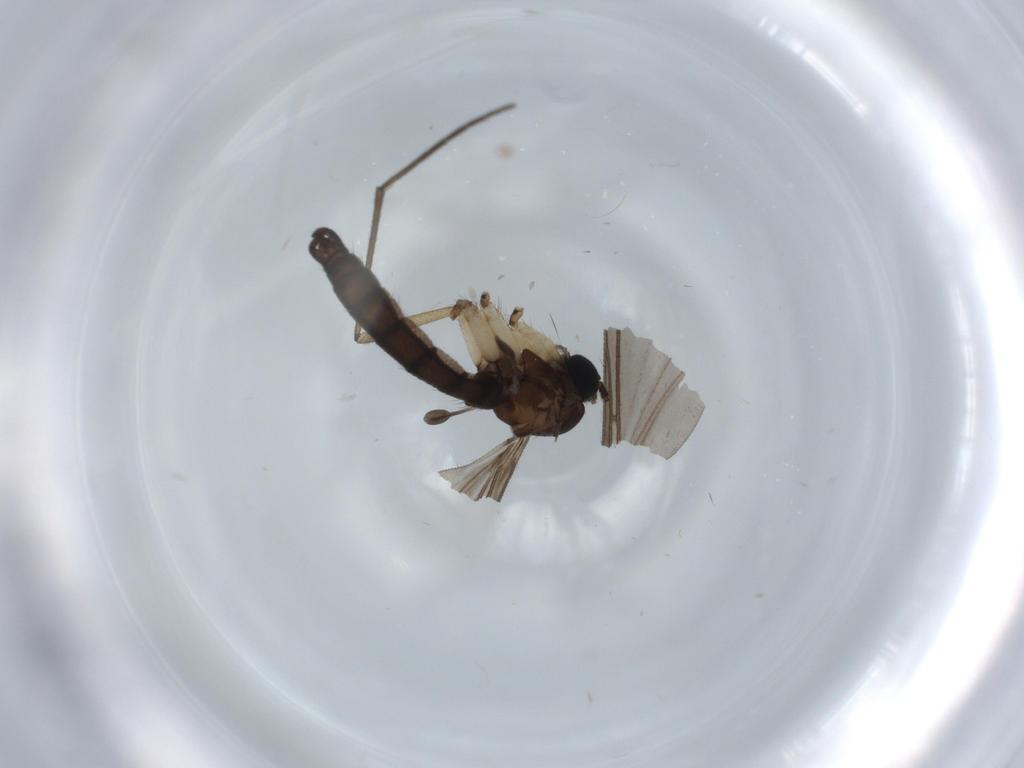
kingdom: Animalia
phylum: Arthropoda
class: Insecta
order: Diptera
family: Sciaridae
